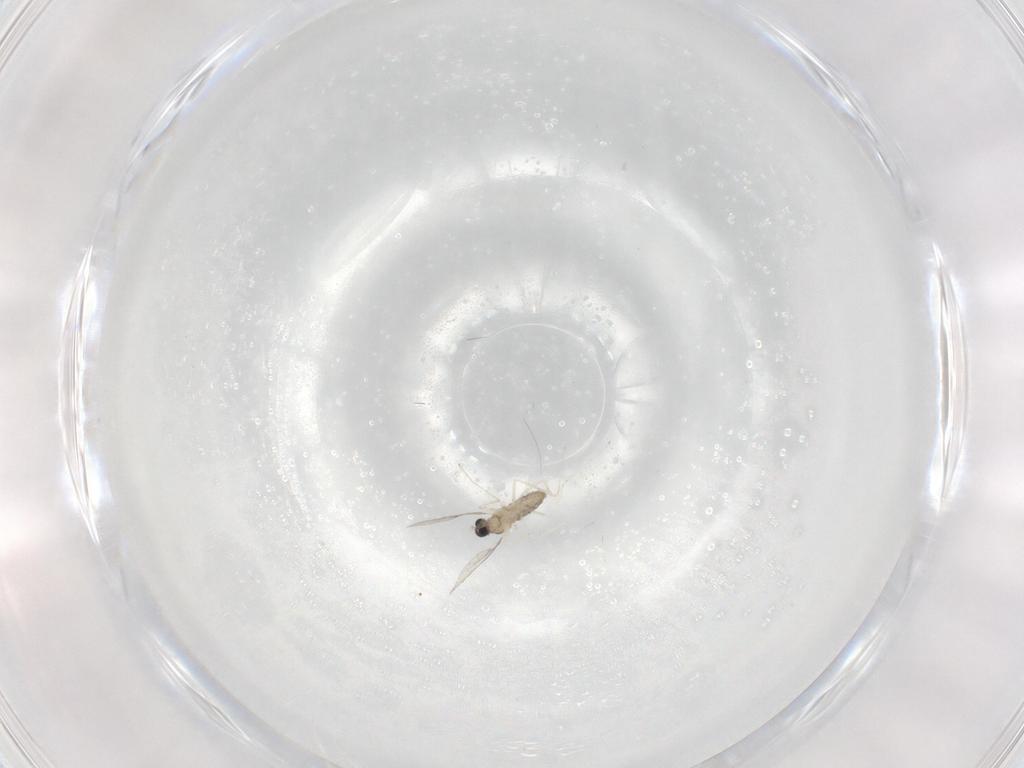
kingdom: Animalia
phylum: Arthropoda
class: Insecta
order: Diptera
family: Cecidomyiidae
